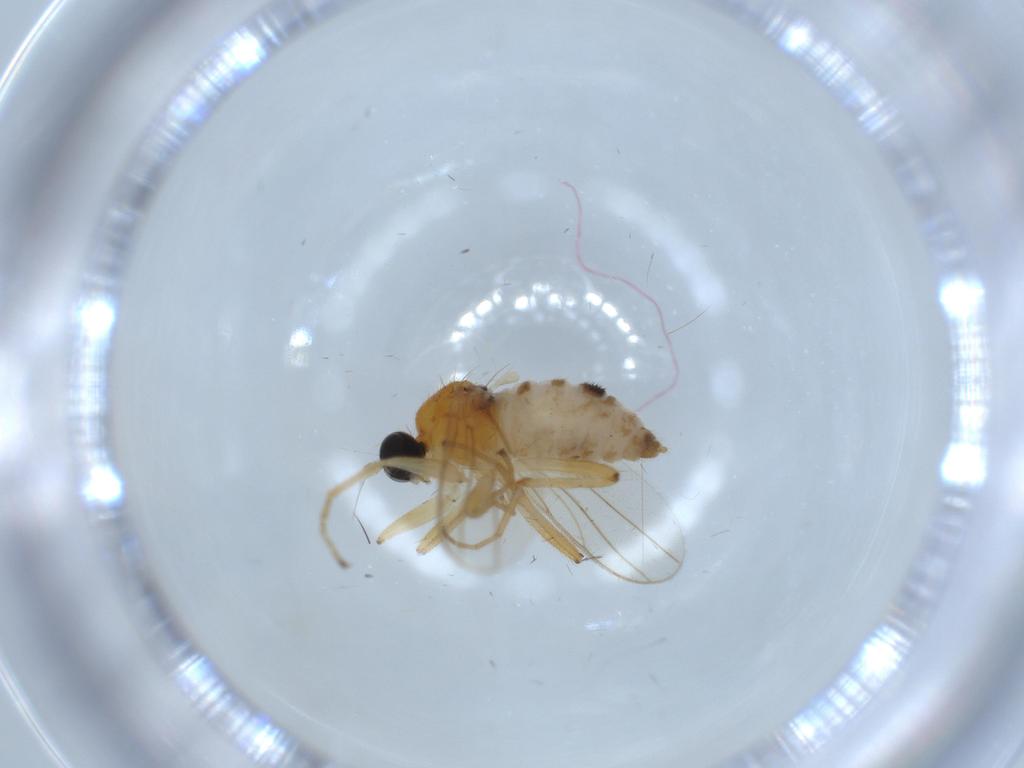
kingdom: Animalia
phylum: Arthropoda
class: Insecta
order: Diptera
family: Hybotidae
